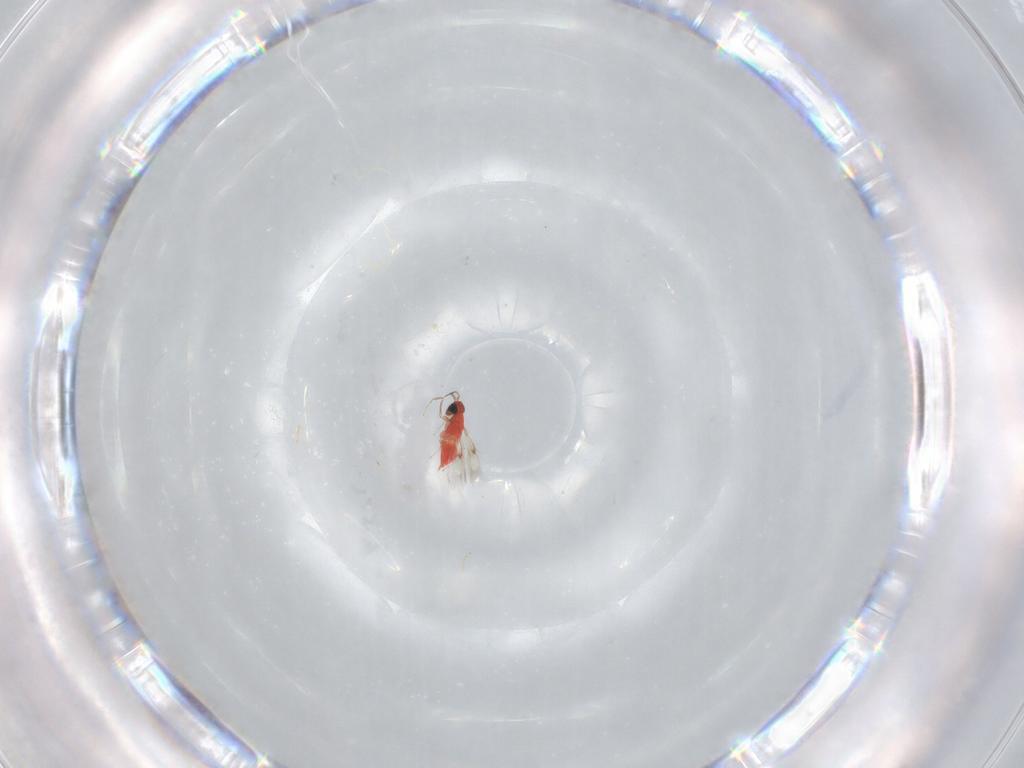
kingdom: Animalia
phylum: Arthropoda
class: Insecta
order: Hymenoptera
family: Trichogrammatidae
